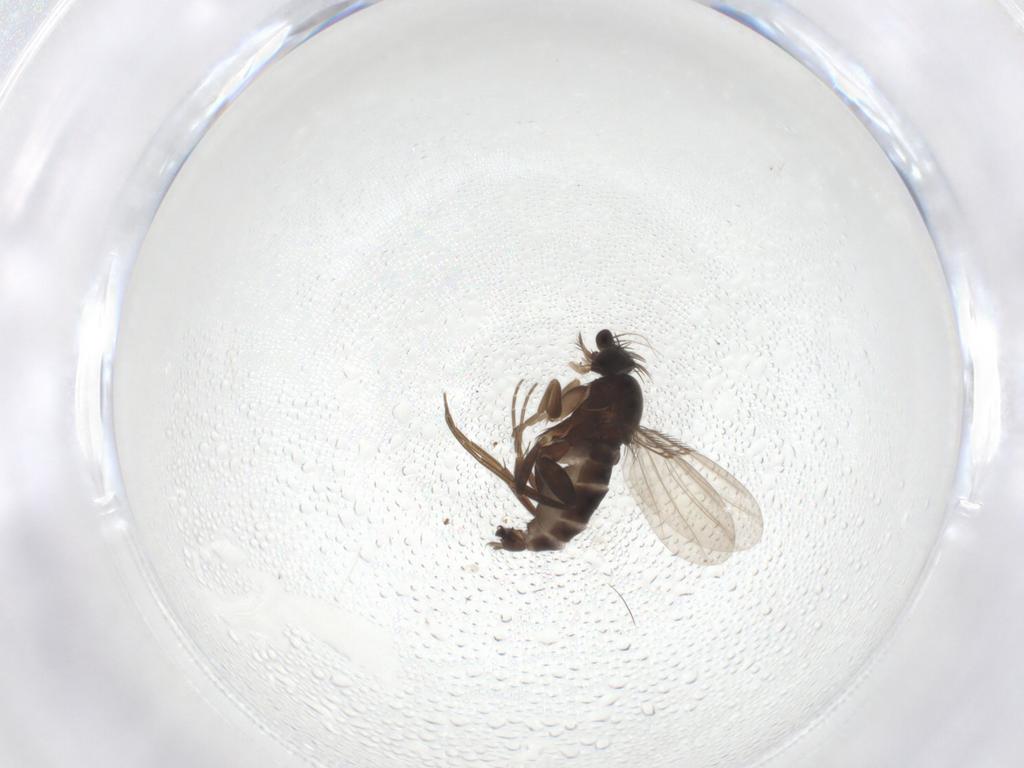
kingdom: Animalia
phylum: Arthropoda
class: Insecta
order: Diptera
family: Phoridae
